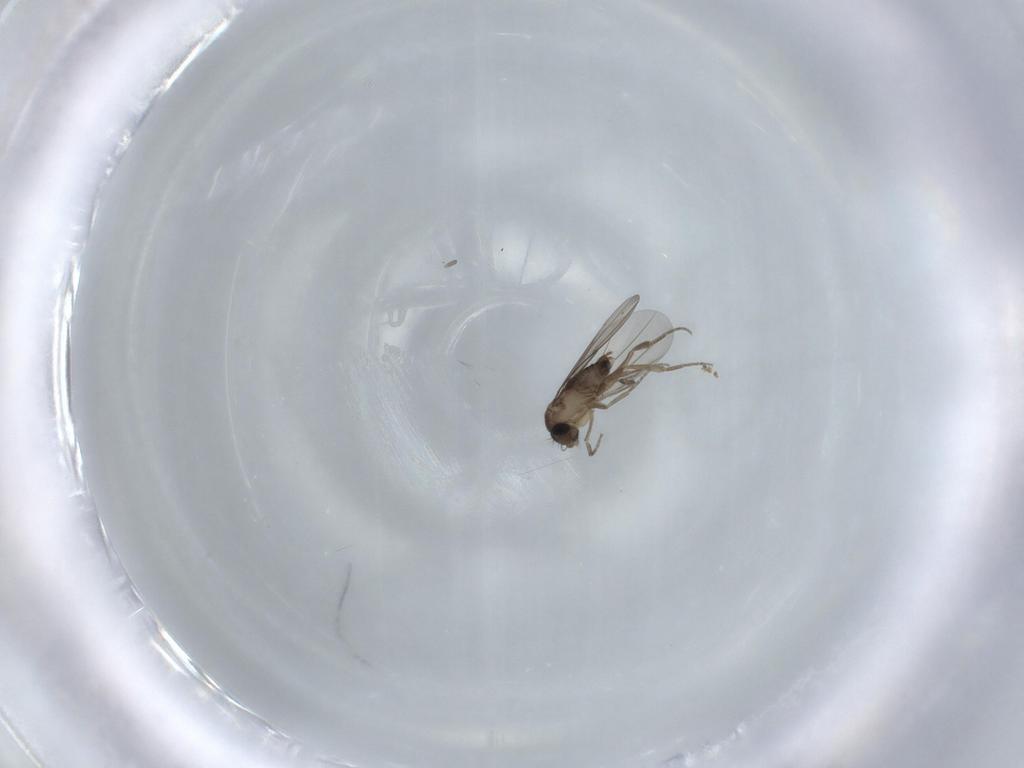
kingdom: Animalia
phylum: Arthropoda
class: Insecta
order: Diptera
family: Phoridae
